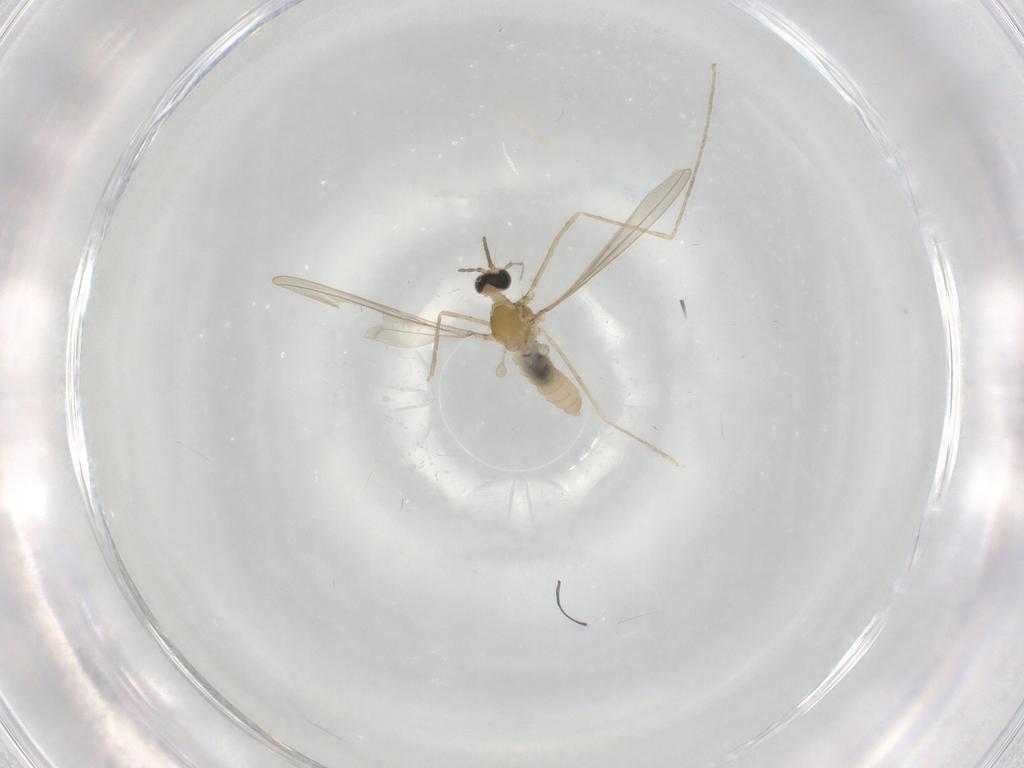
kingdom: Animalia
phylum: Arthropoda
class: Insecta
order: Diptera
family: Cecidomyiidae
